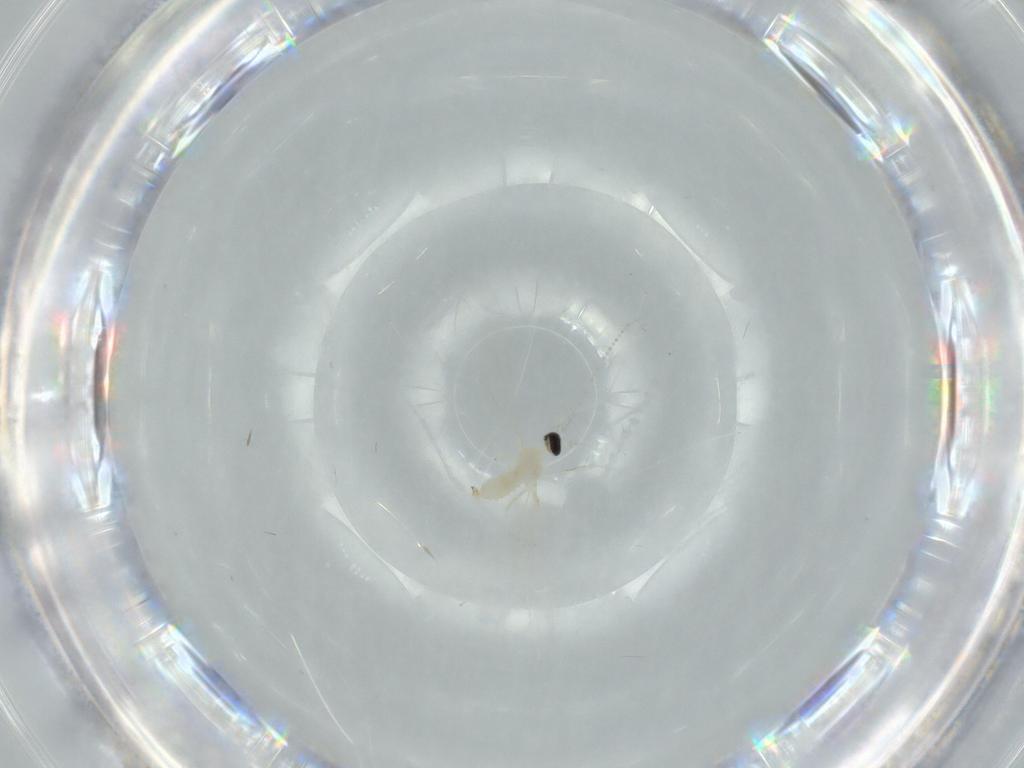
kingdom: Animalia
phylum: Arthropoda
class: Insecta
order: Diptera
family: Cecidomyiidae
